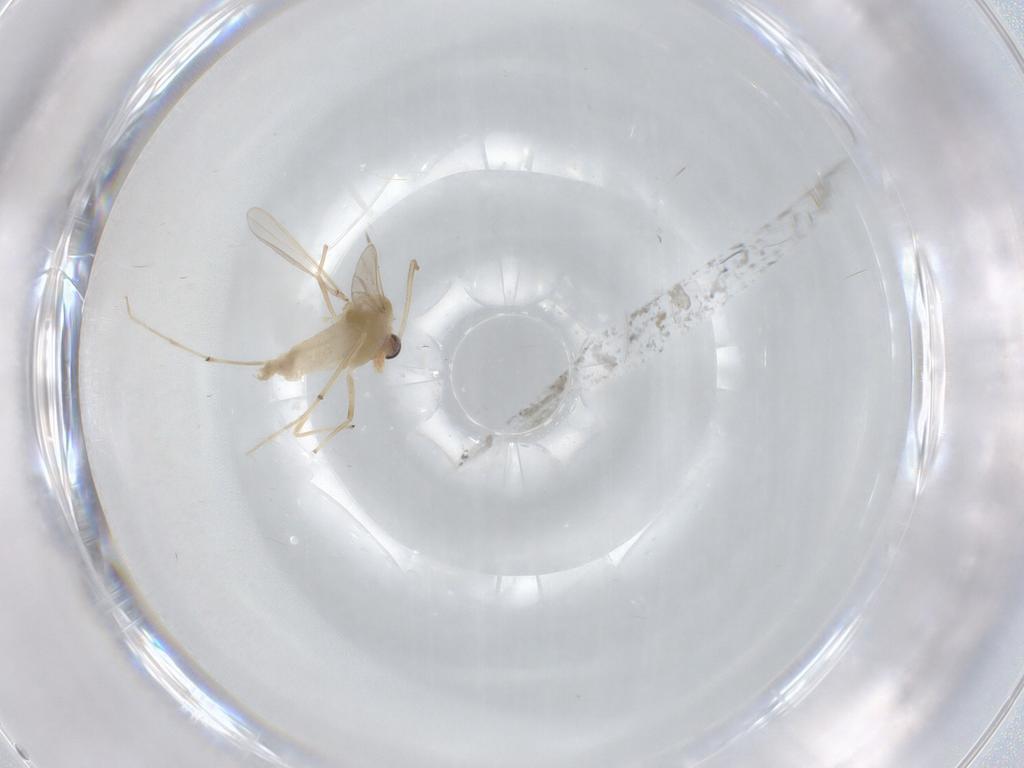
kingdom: Animalia
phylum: Arthropoda
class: Insecta
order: Diptera
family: Chironomidae
